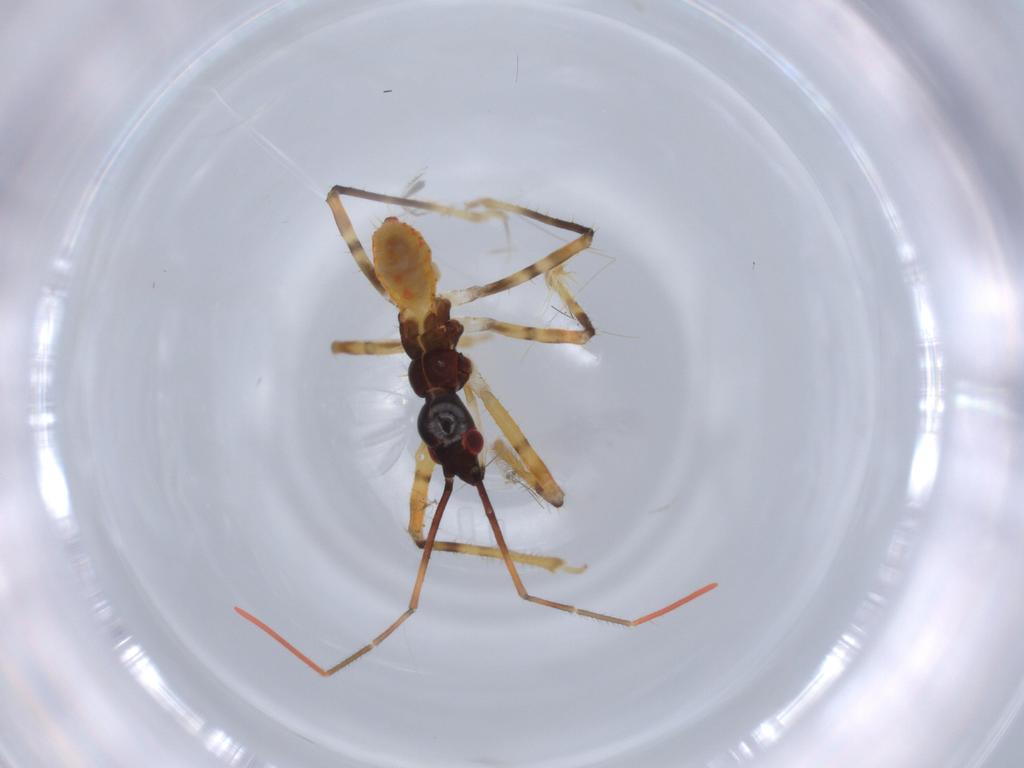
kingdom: Animalia
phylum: Arthropoda
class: Insecta
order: Hemiptera
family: Reduviidae
